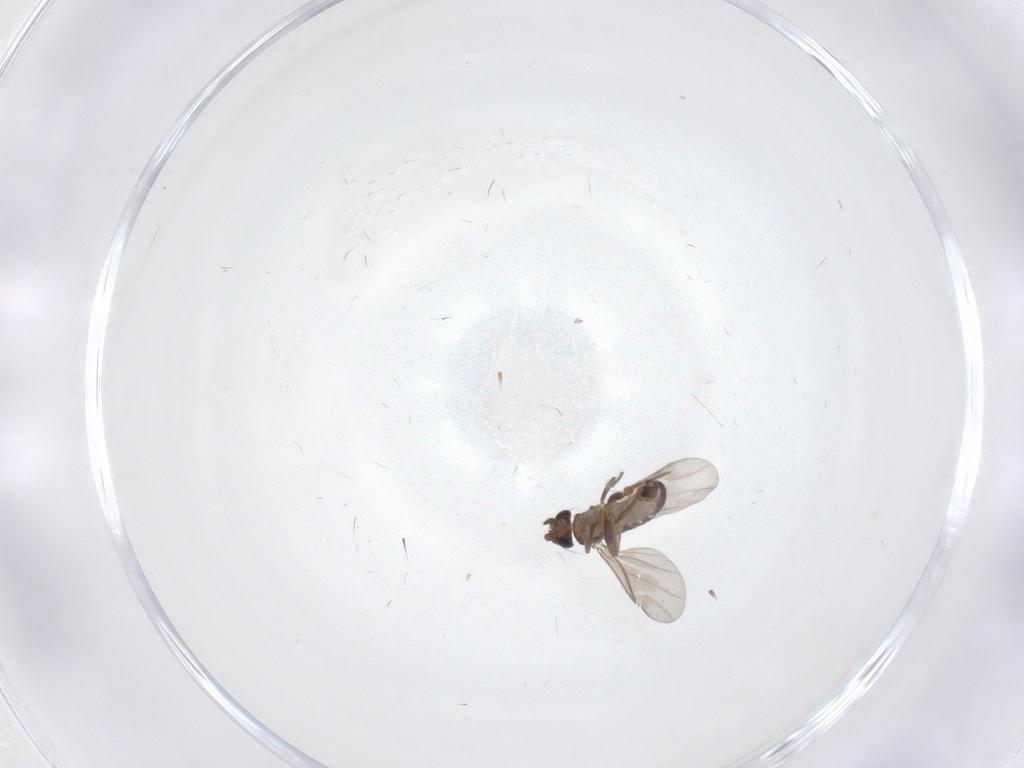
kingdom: Animalia
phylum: Arthropoda
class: Insecta
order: Diptera
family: Cecidomyiidae
